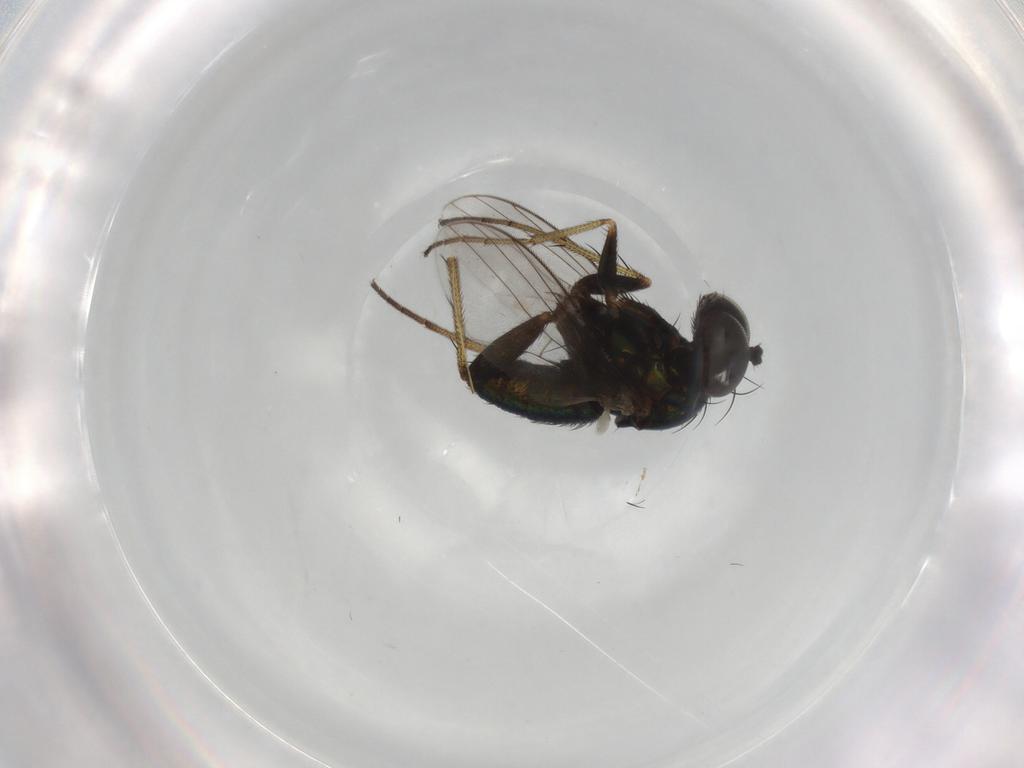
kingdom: Animalia
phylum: Arthropoda
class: Insecta
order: Diptera
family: Dolichopodidae
